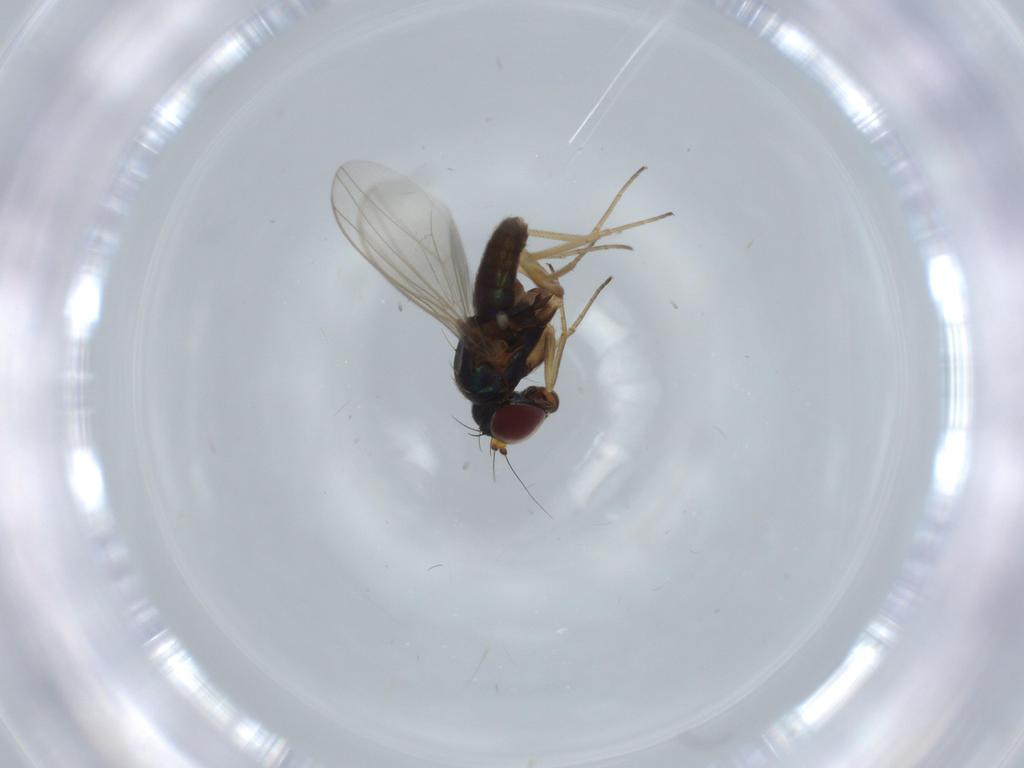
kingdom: Animalia
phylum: Arthropoda
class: Insecta
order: Diptera
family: Dolichopodidae
